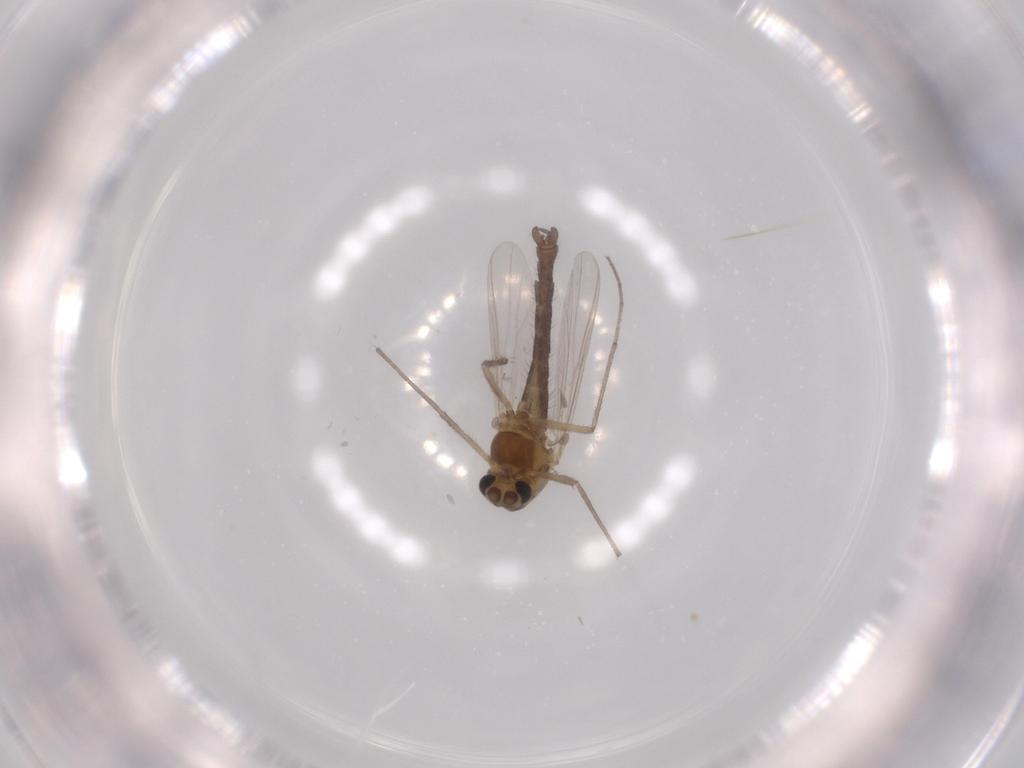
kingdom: Animalia
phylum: Arthropoda
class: Insecta
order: Diptera
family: Chironomidae
